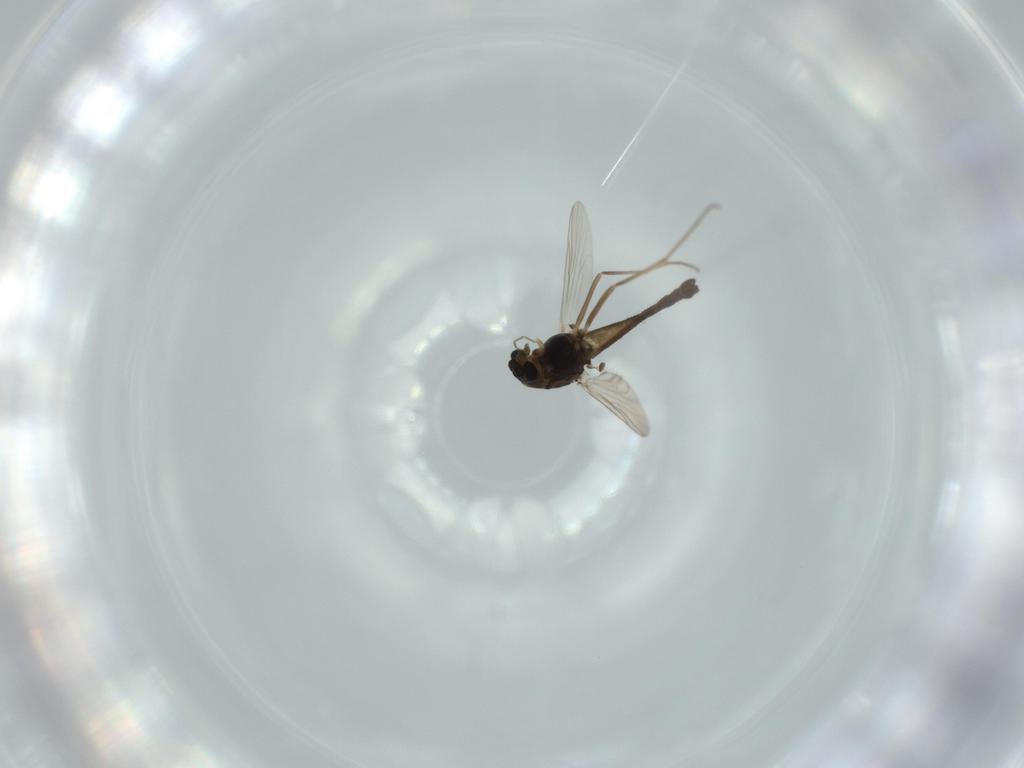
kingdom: Animalia
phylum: Arthropoda
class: Insecta
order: Diptera
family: Chironomidae
